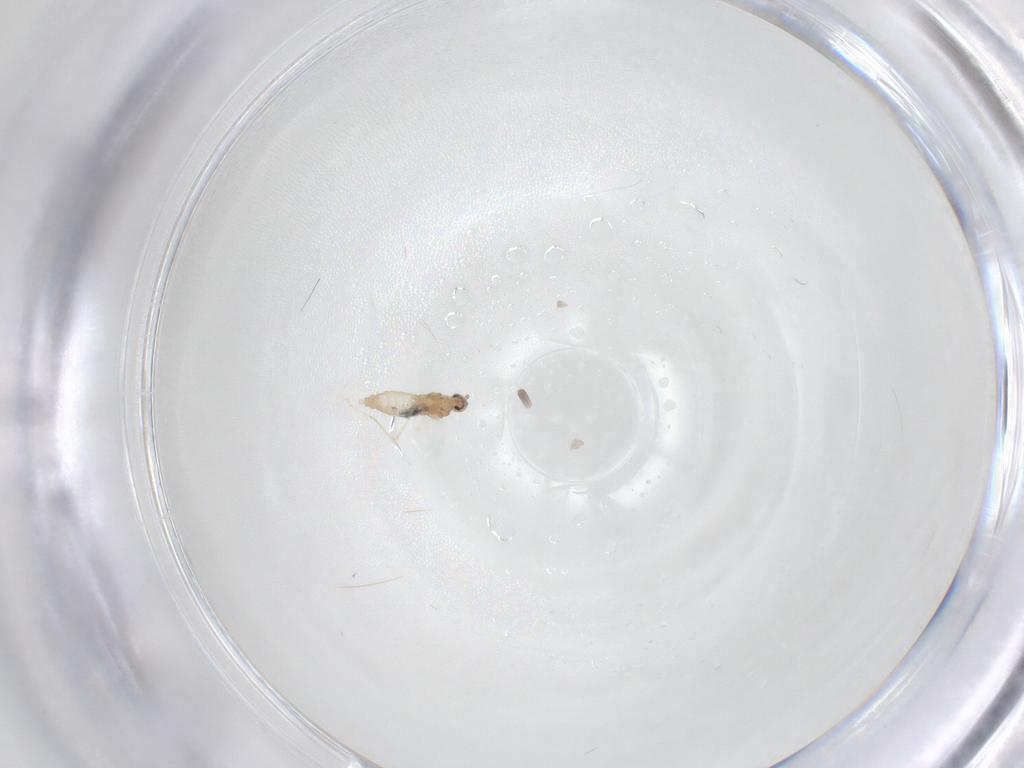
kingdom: Animalia
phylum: Arthropoda
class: Insecta
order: Diptera
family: Cecidomyiidae
